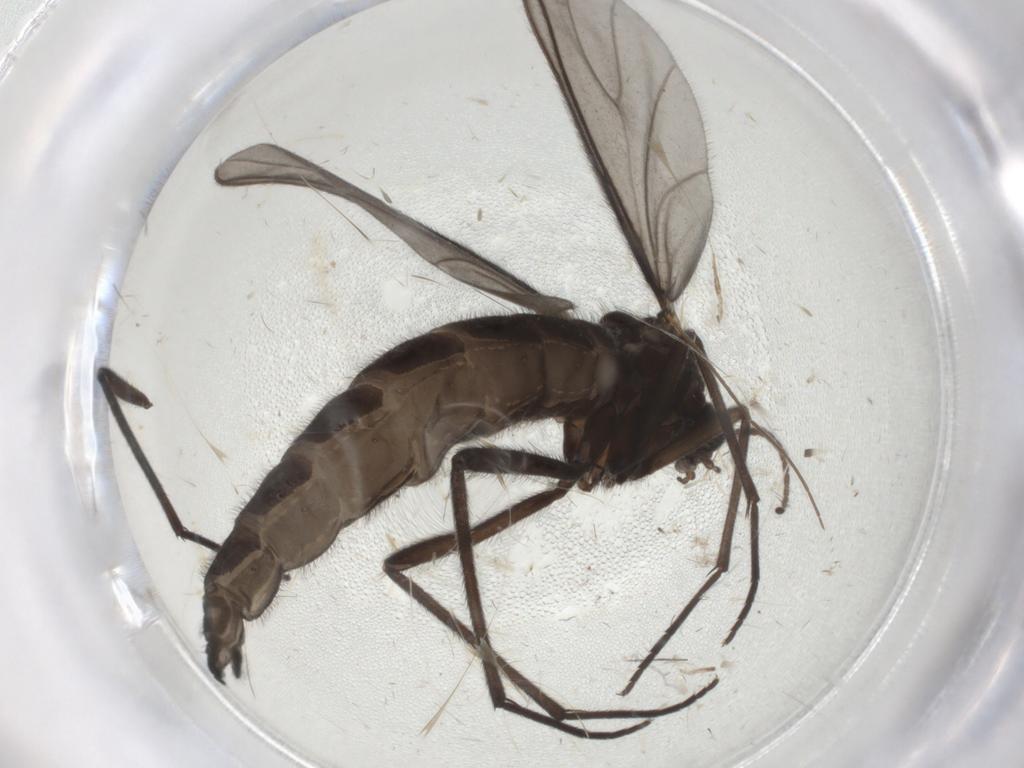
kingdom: Animalia
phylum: Arthropoda
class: Insecta
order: Diptera
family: Sciaridae
